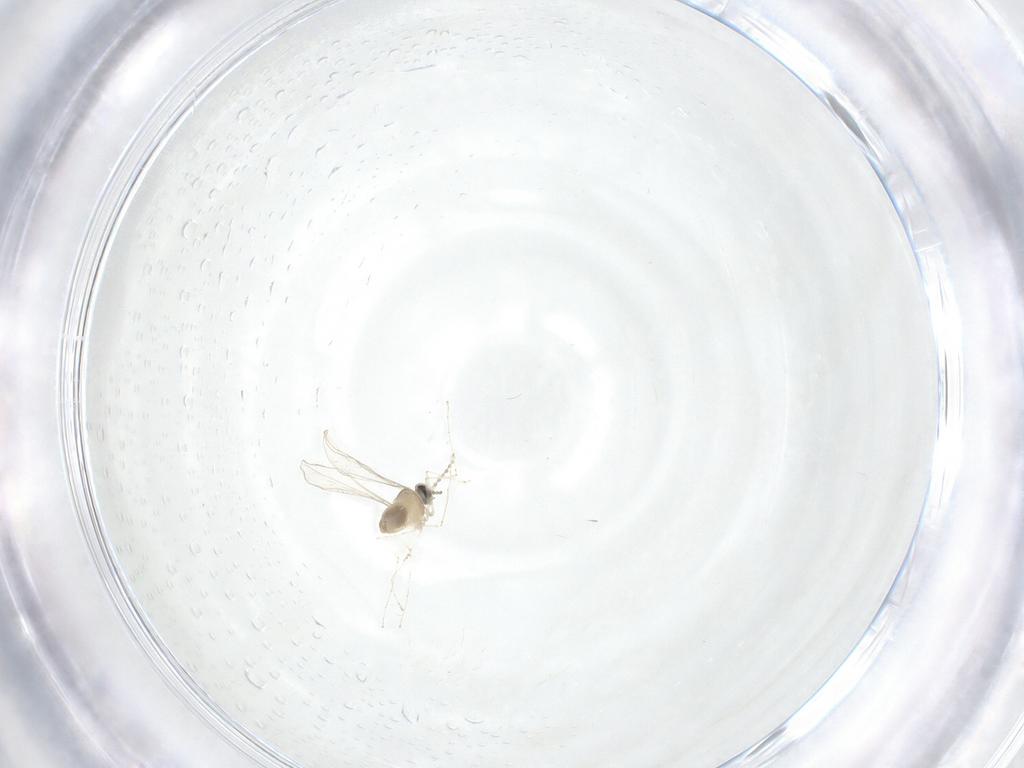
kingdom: Animalia
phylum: Arthropoda
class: Insecta
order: Diptera
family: Cecidomyiidae
